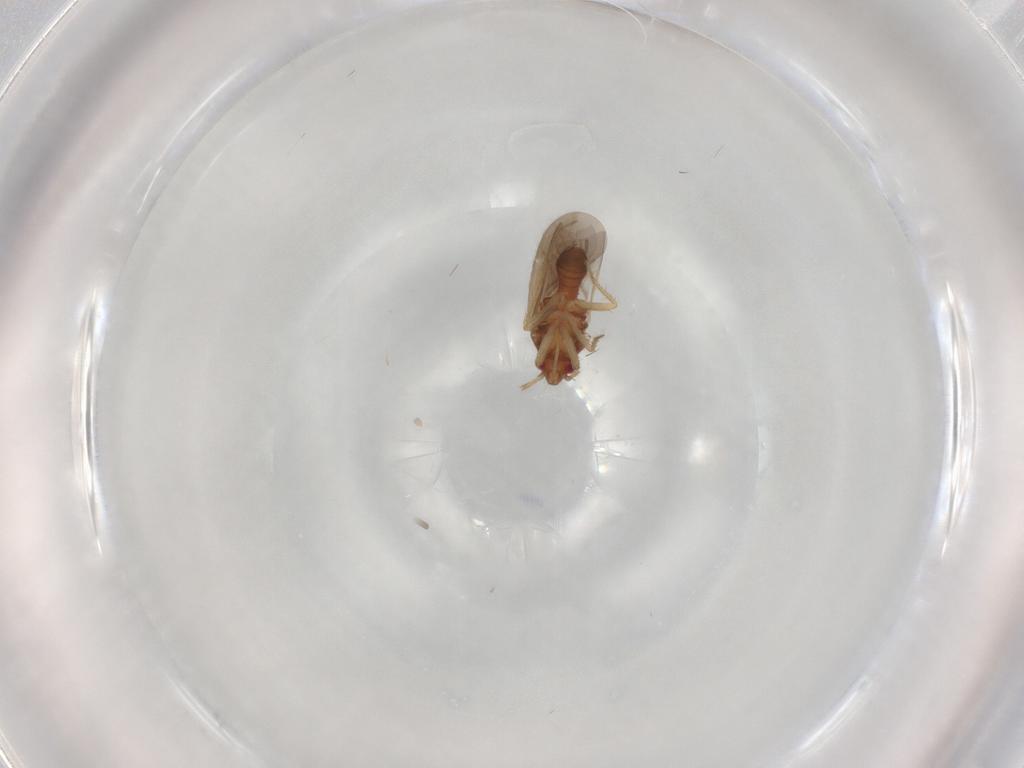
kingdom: Animalia
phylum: Arthropoda
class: Insecta
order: Hemiptera
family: Ceratocombidae
